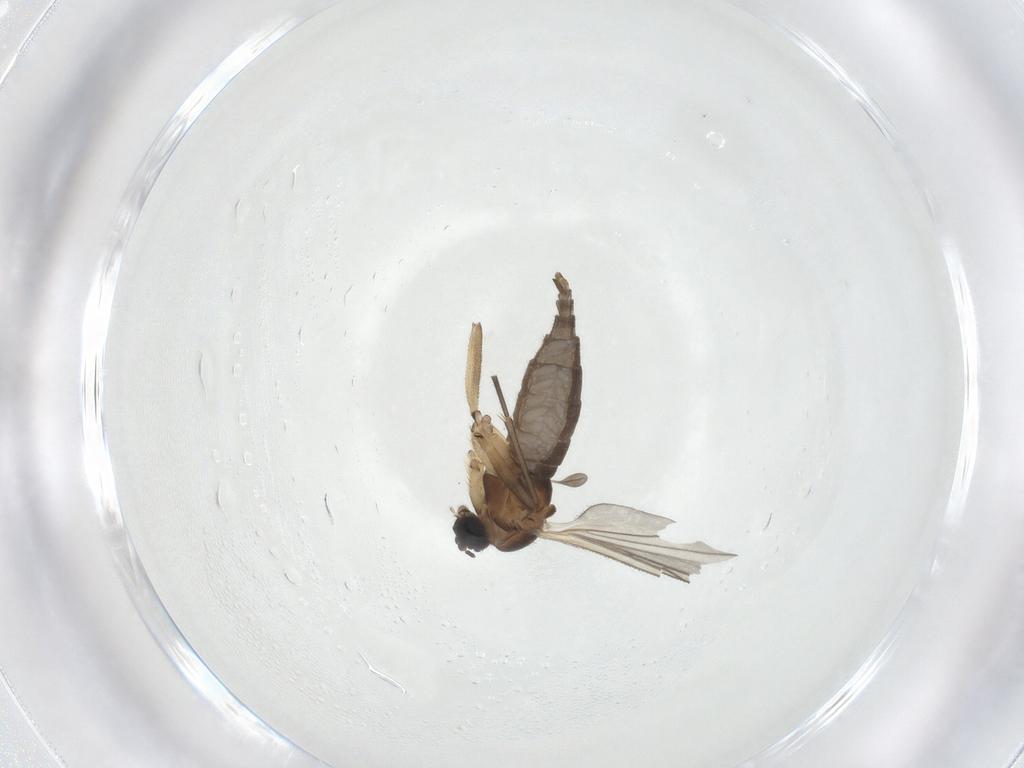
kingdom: Animalia
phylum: Arthropoda
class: Insecta
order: Diptera
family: Sciaridae
